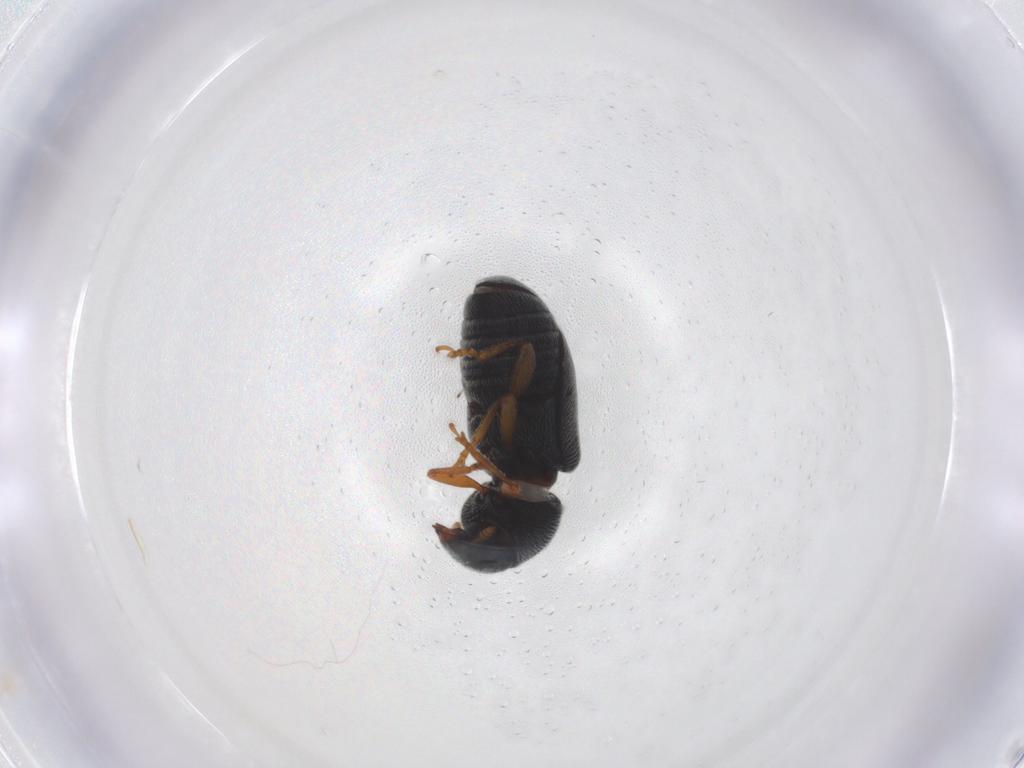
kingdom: Animalia
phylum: Arthropoda
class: Insecta
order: Coleoptera
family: Anthribidae
